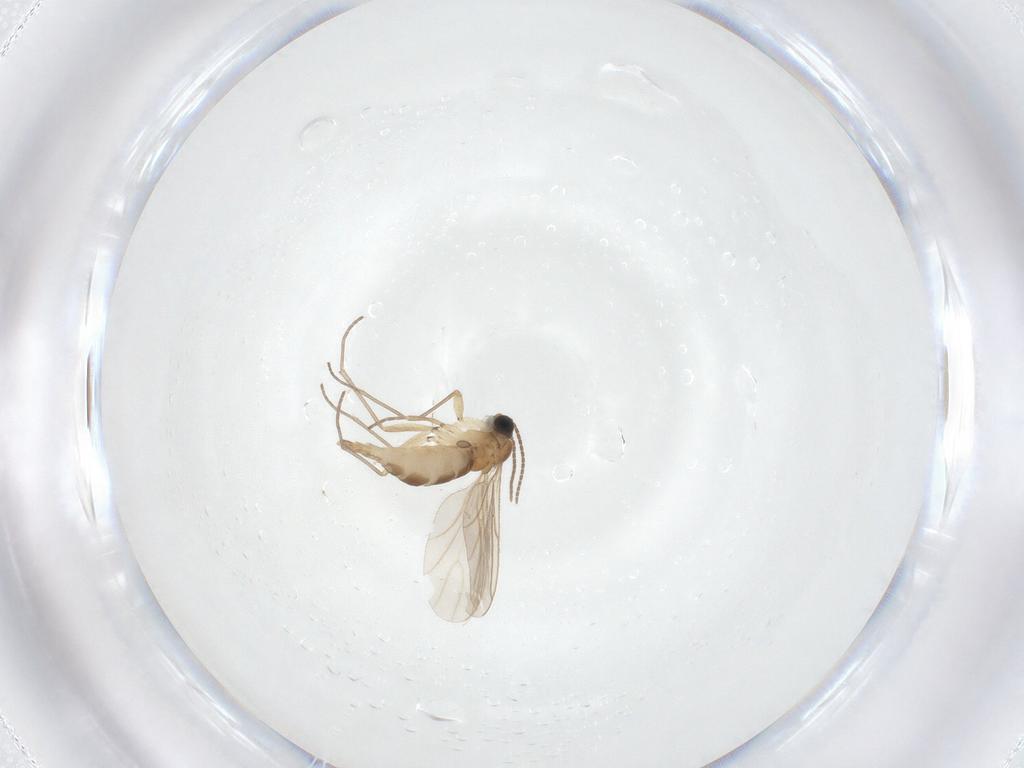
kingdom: Animalia
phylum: Arthropoda
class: Insecta
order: Diptera
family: Sciaridae
